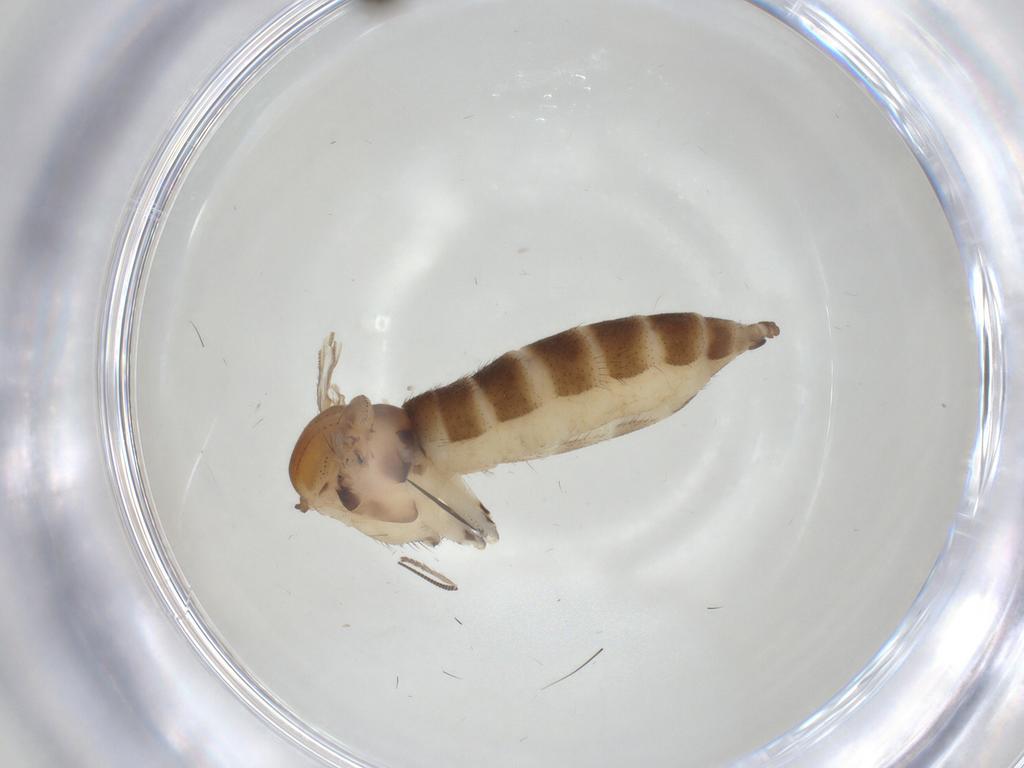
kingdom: Animalia
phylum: Arthropoda
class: Insecta
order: Diptera
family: Sciaridae
